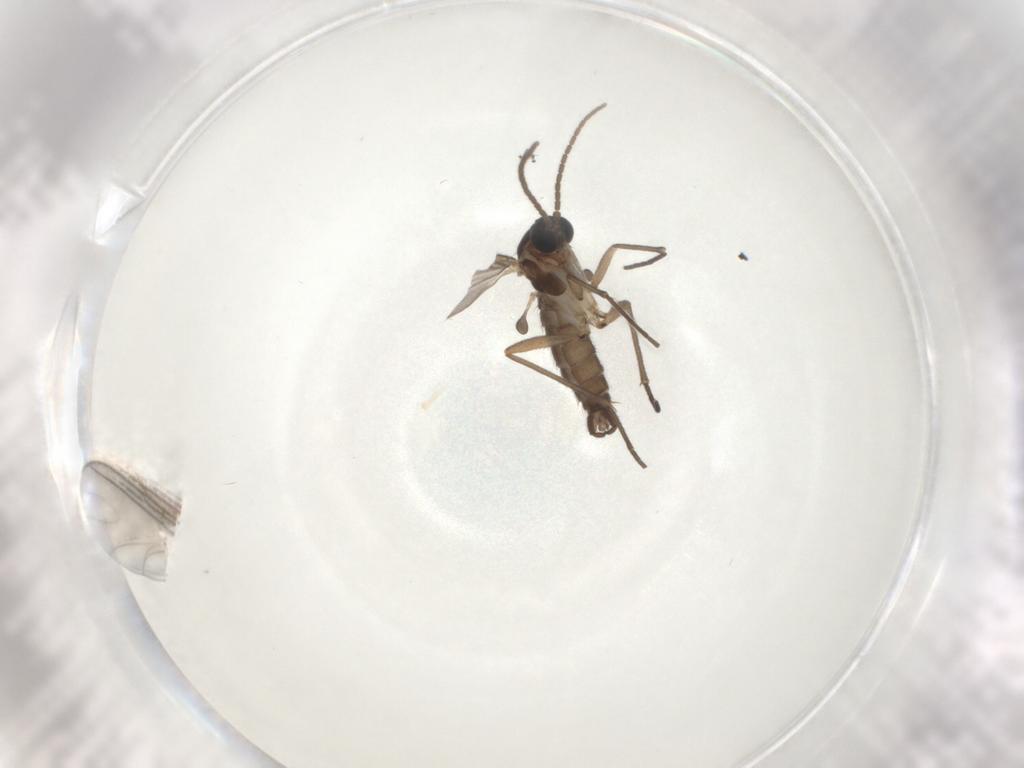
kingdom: Animalia
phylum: Arthropoda
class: Insecta
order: Diptera
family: Sciaridae
